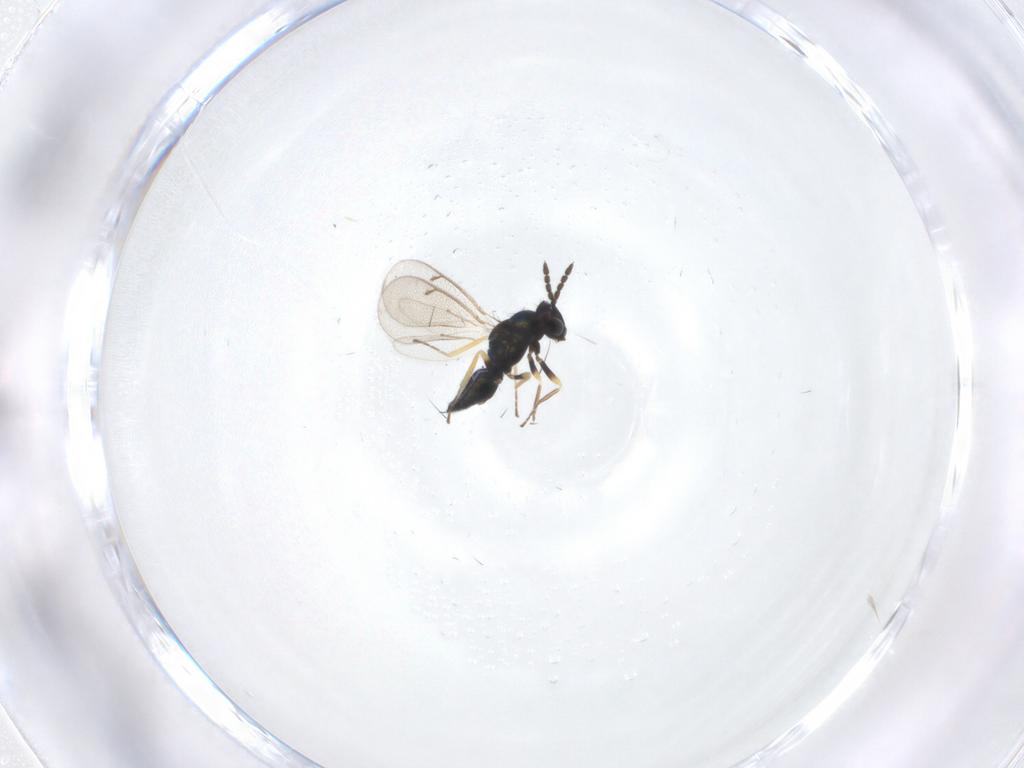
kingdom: Animalia
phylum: Arthropoda
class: Insecta
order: Hymenoptera
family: Eulophidae
